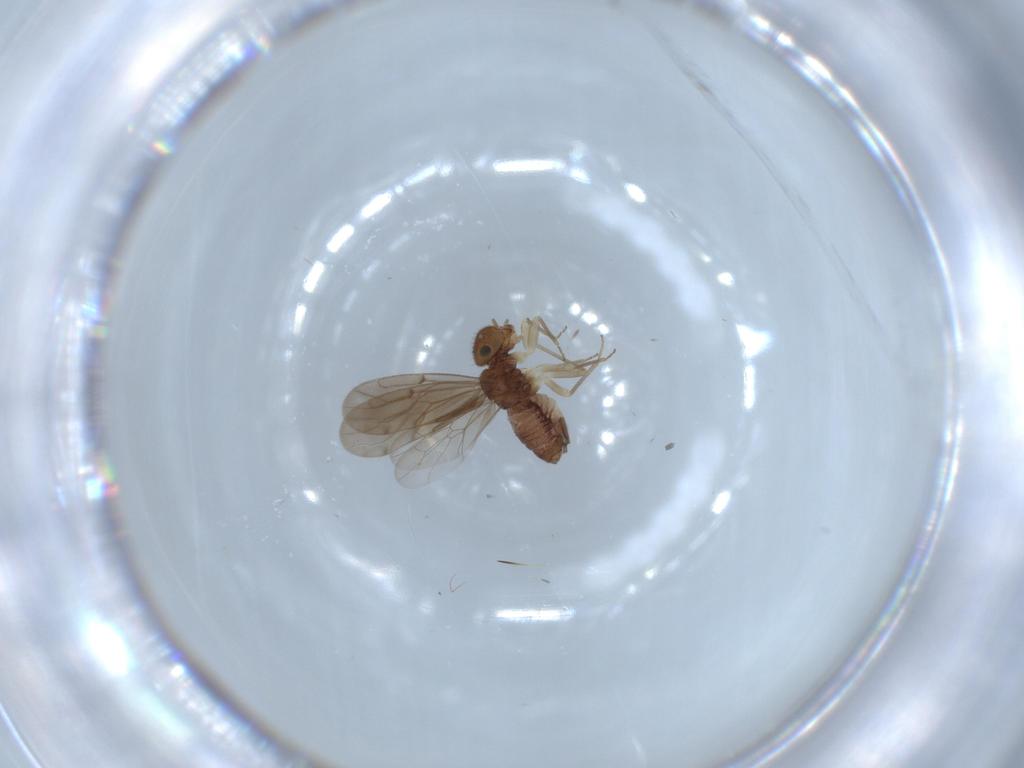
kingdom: Animalia
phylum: Arthropoda
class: Insecta
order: Psocodea
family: Ectopsocidae
